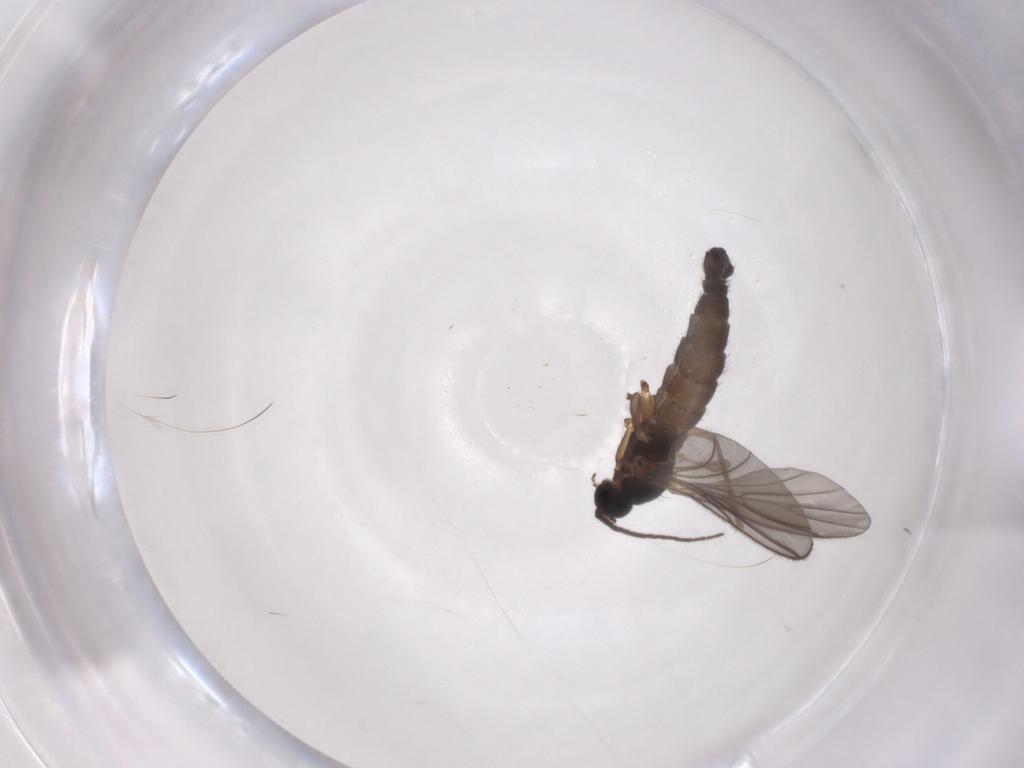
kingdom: Animalia
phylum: Arthropoda
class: Insecta
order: Diptera
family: Sciaridae
